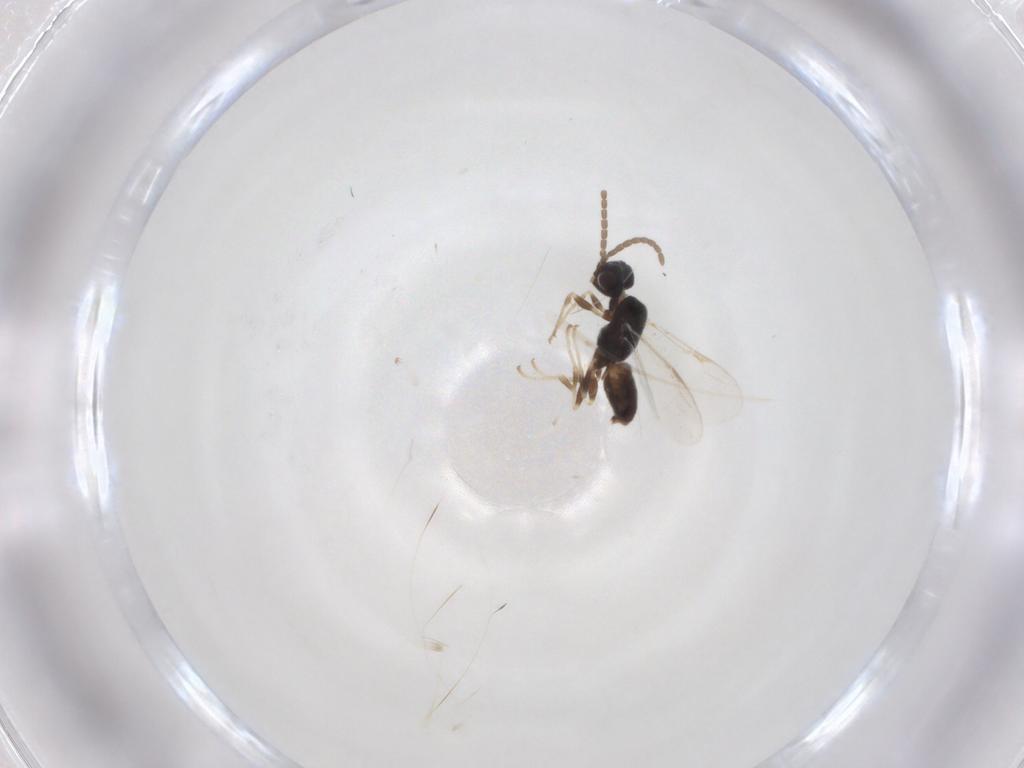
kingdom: Animalia
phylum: Arthropoda
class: Insecta
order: Hymenoptera
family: Dryinidae
